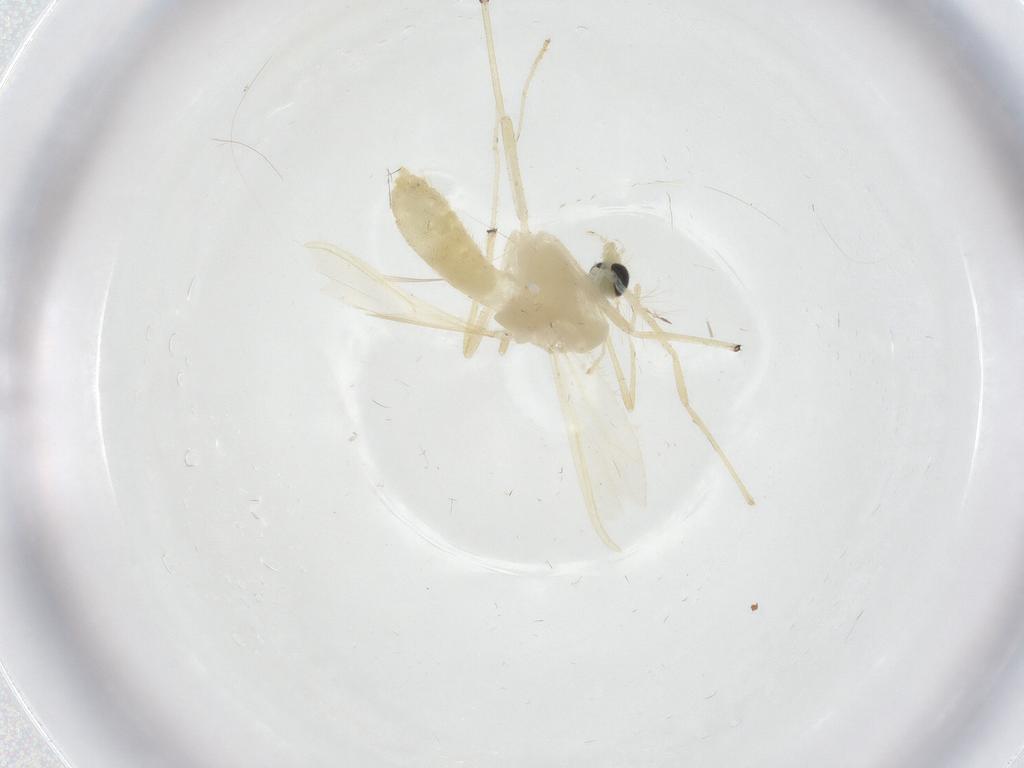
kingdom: Animalia
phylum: Arthropoda
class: Insecta
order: Diptera
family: Chironomidae
